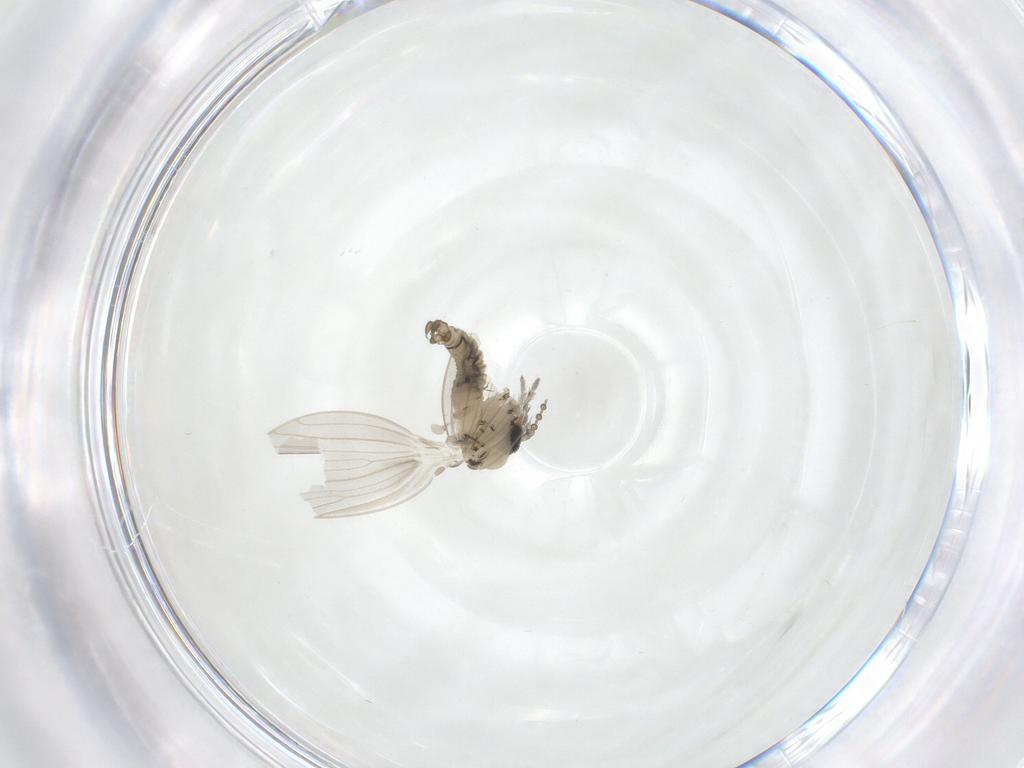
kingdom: Animalia
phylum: Arthropoda
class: Insecta
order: Diptera
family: Psychodidae
